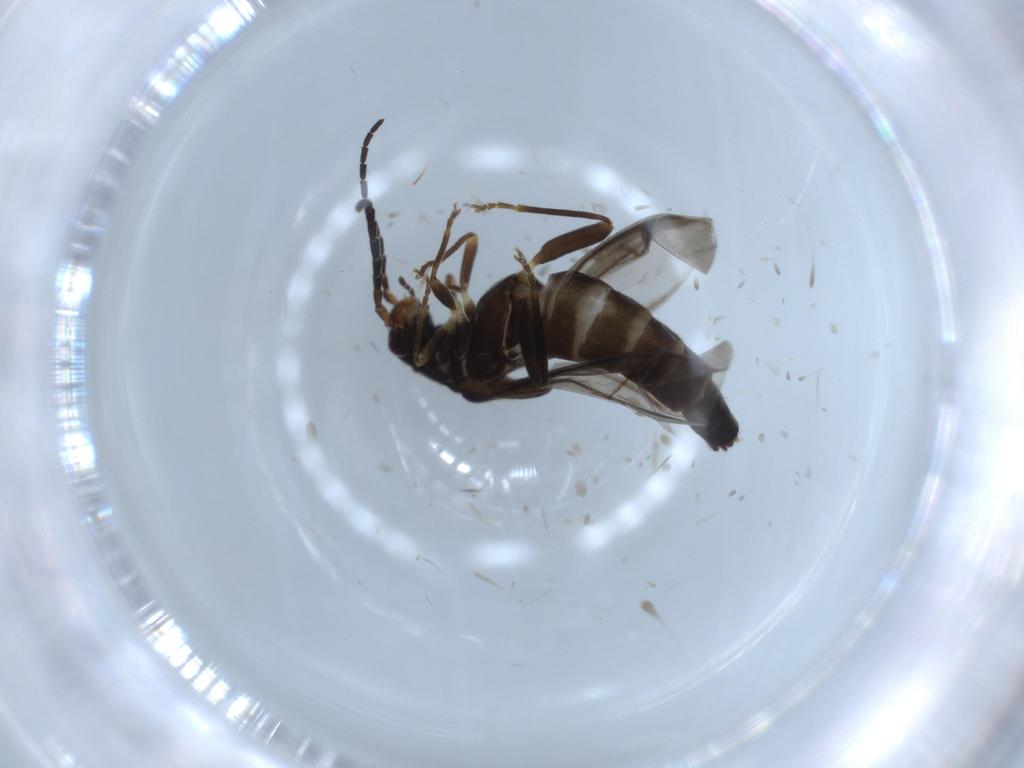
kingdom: Animalia
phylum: Arthropoda
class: Insecta
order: Coleoptera
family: Cantharidae
